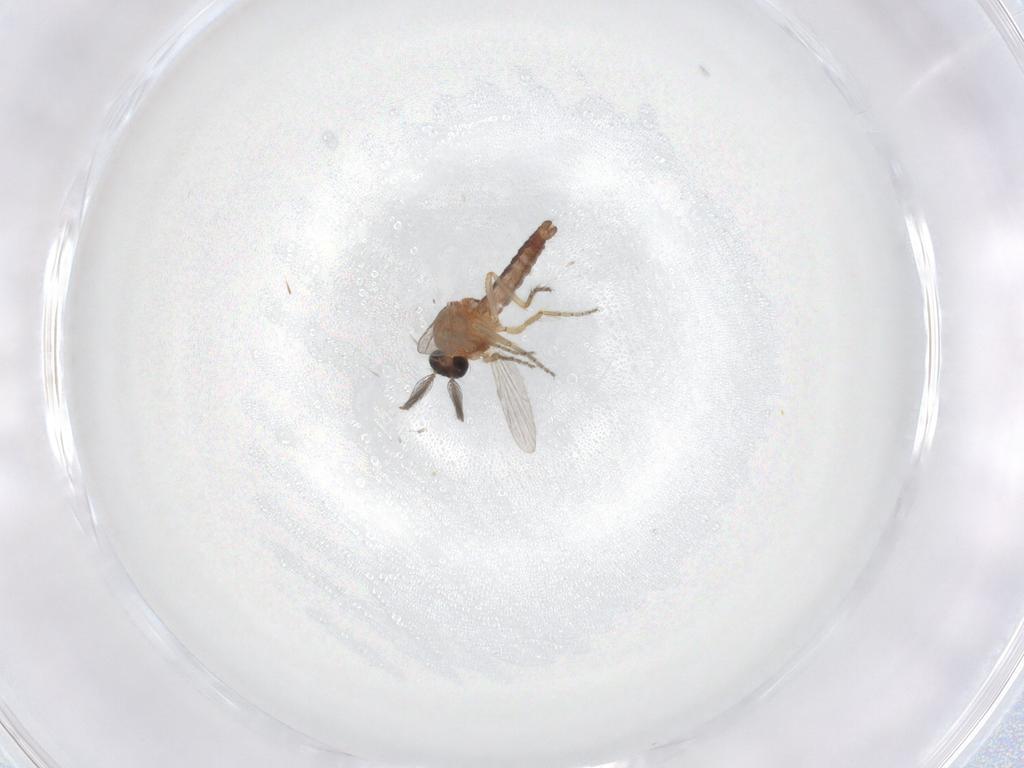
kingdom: Animalia
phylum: Arthropoda
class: Insecta
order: Diptera
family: Ceratopogonidae
